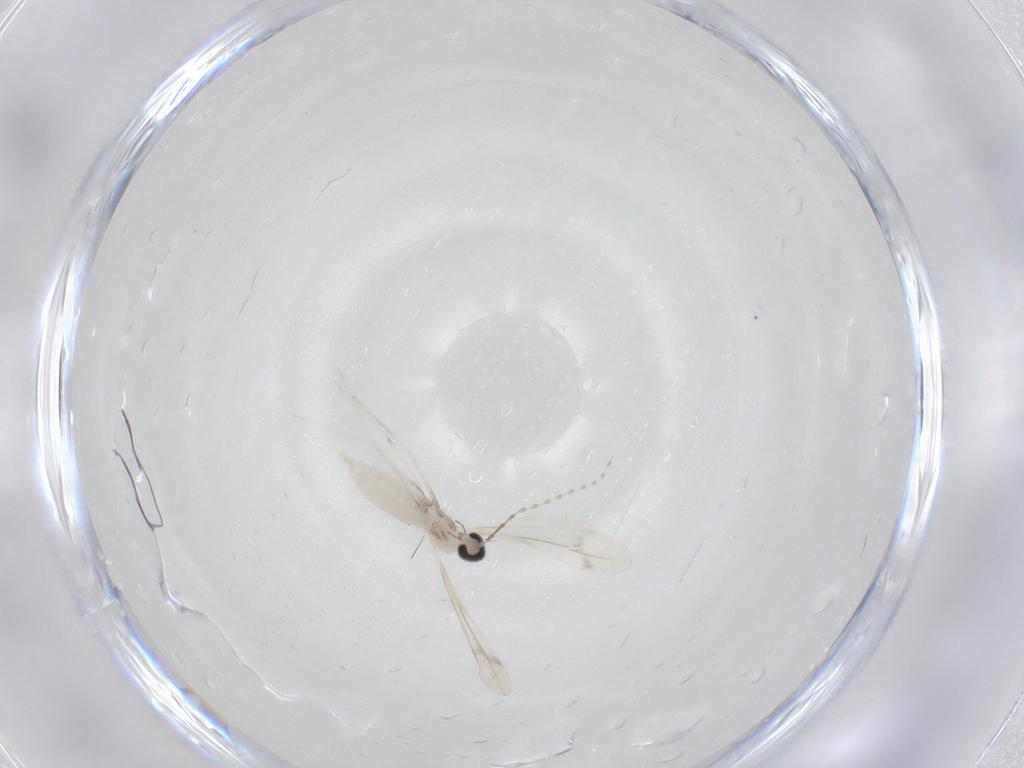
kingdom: Animalia
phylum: Arthropoda
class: Insecta
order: Diptera
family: Cecidomyiidae
